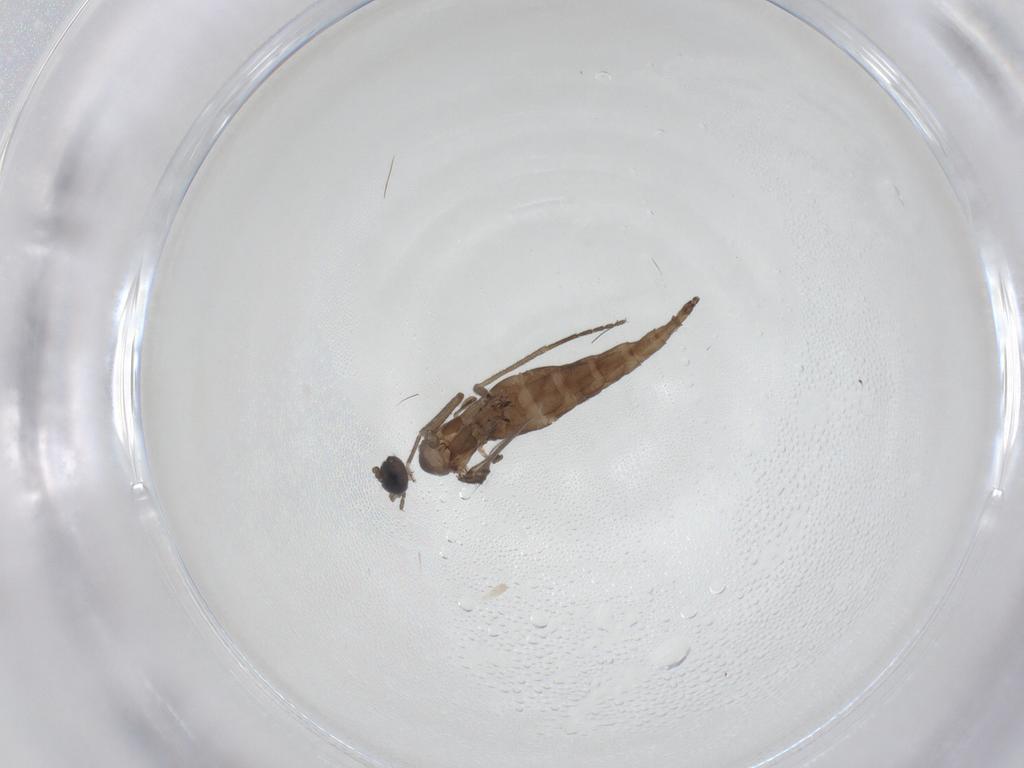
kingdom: Animalia
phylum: Arthropoda
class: Insecta
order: Diptera
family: Sciaridae
